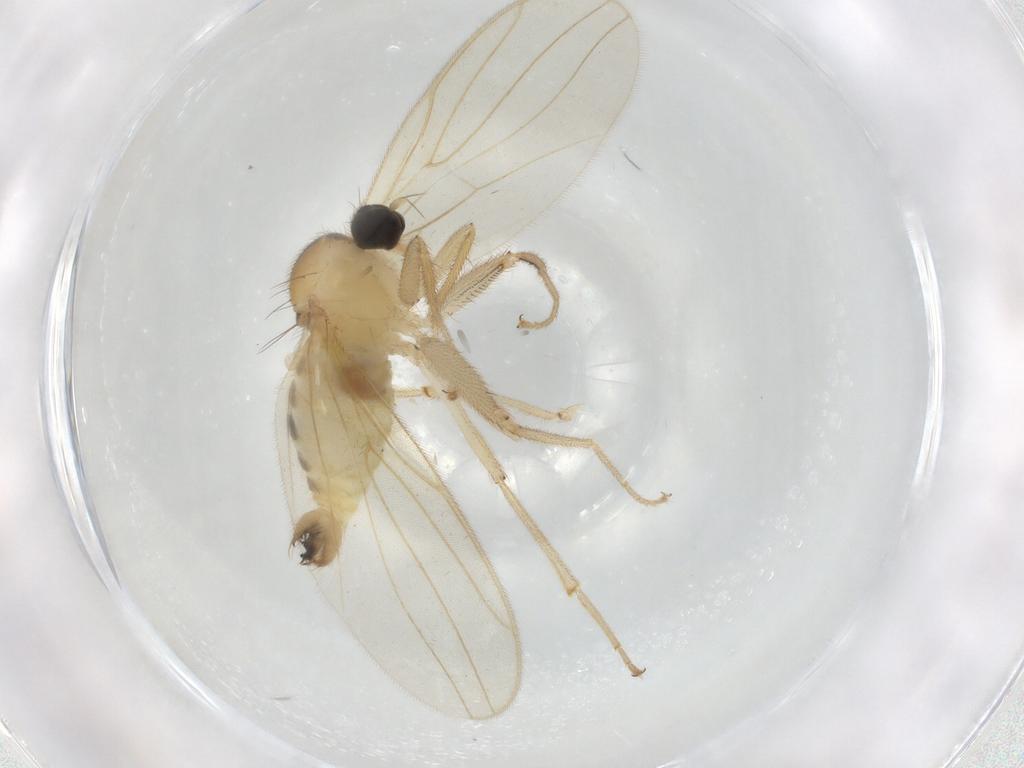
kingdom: Animalia
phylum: Arthropoda
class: Insecta
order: Diptera
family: Hybotidae
